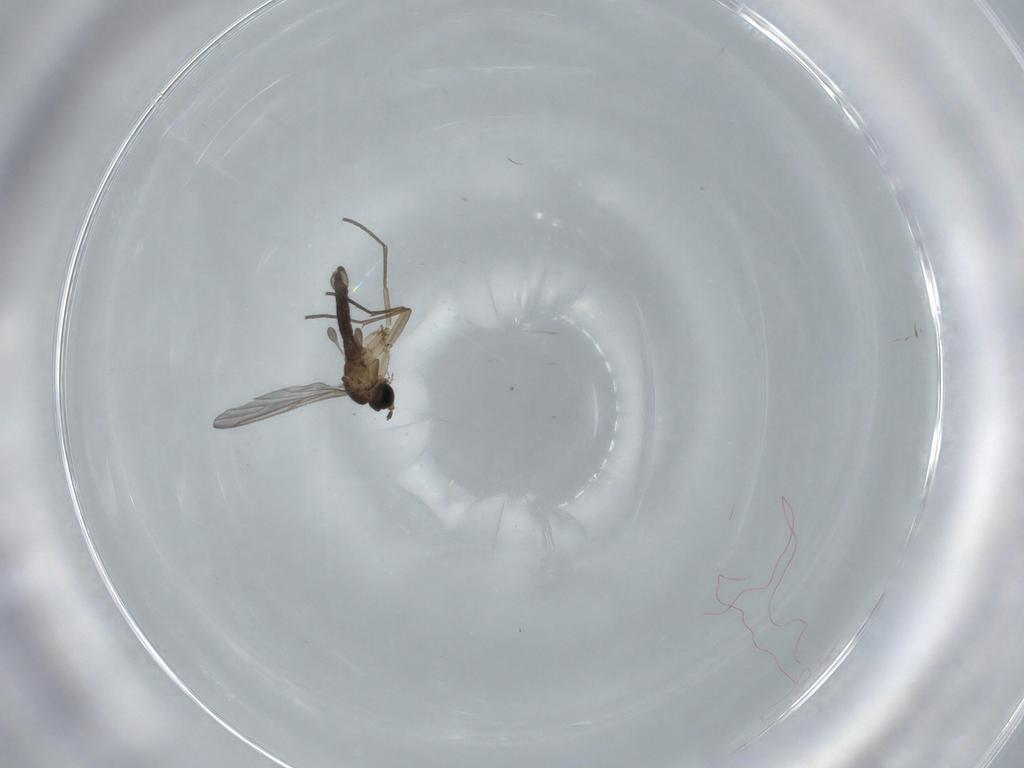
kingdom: Animalia
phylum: Arthropoda
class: Insecta
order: Diptera
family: Sciaridae
